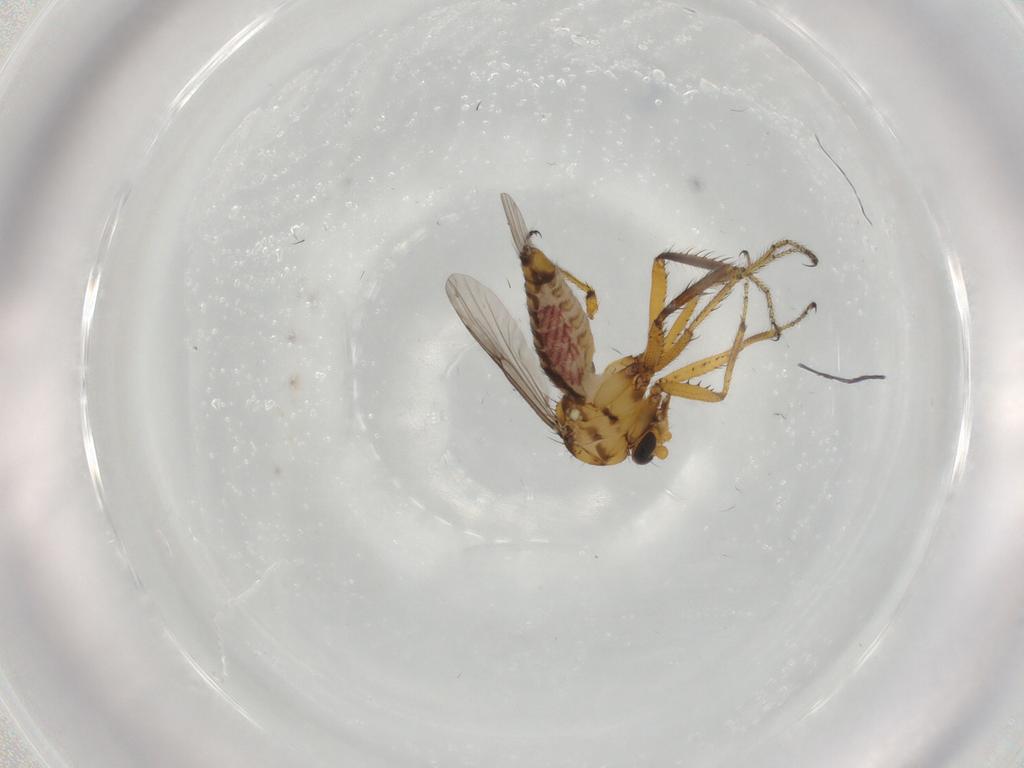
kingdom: Animalia
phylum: Arthropoda
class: Insecta
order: Diptera
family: Ceratopogonidae
